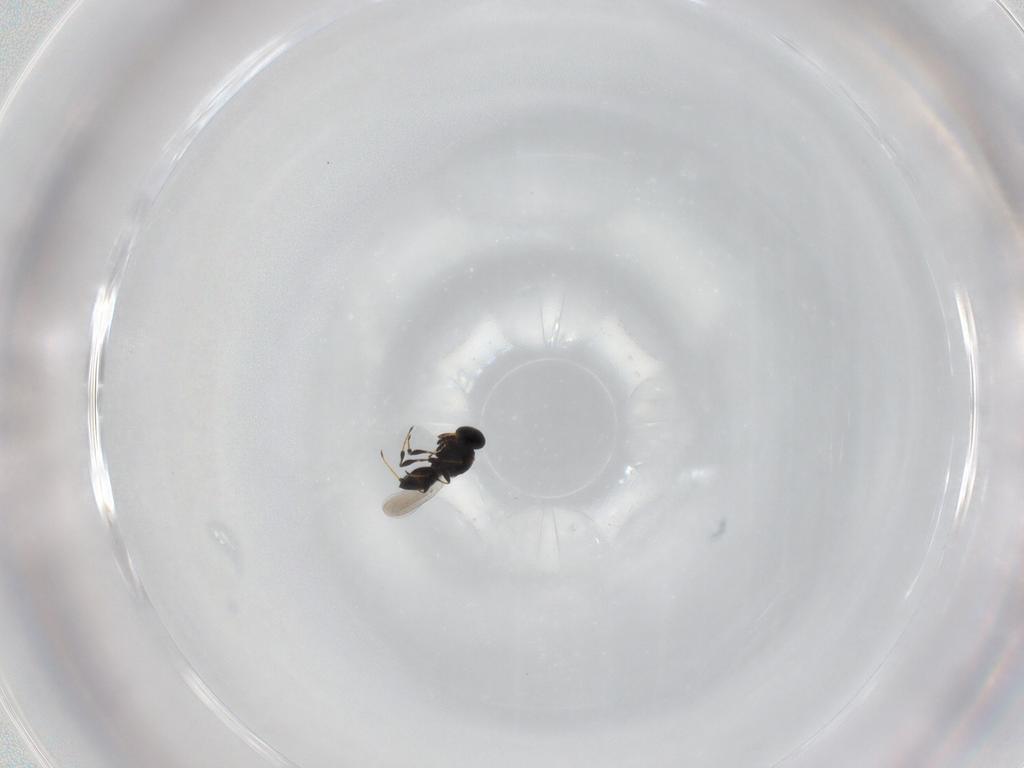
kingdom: Animalia
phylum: Arthropoda
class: Insecta
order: Hymenoptera
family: Platygastridae
